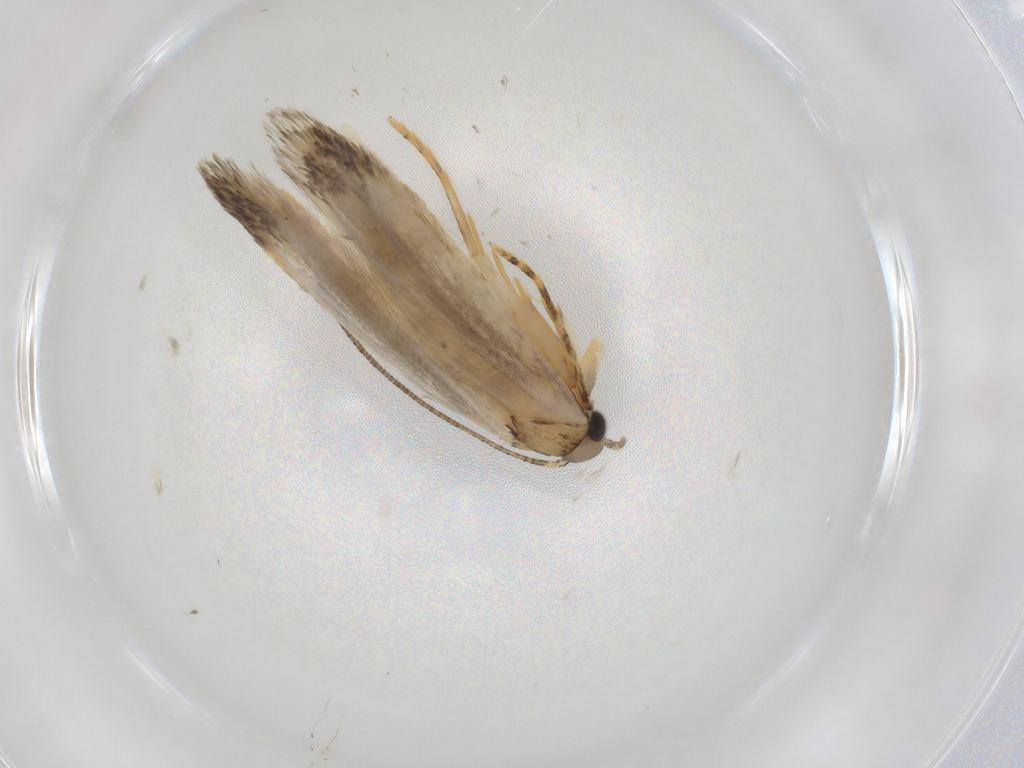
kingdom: Animalia
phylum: Arthropoda
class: Insecta
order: Lepidoptera
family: Autostichidae
